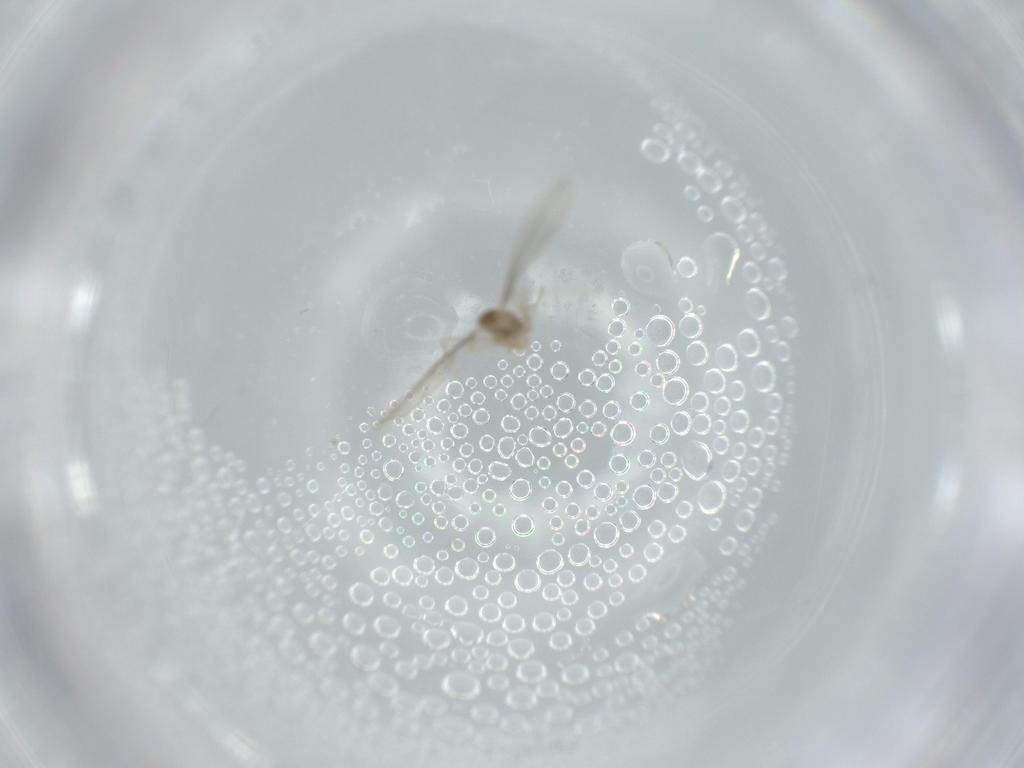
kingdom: Animalia
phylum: Arthropoda
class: Insecta
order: Diptera
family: Cecidomyiidae
